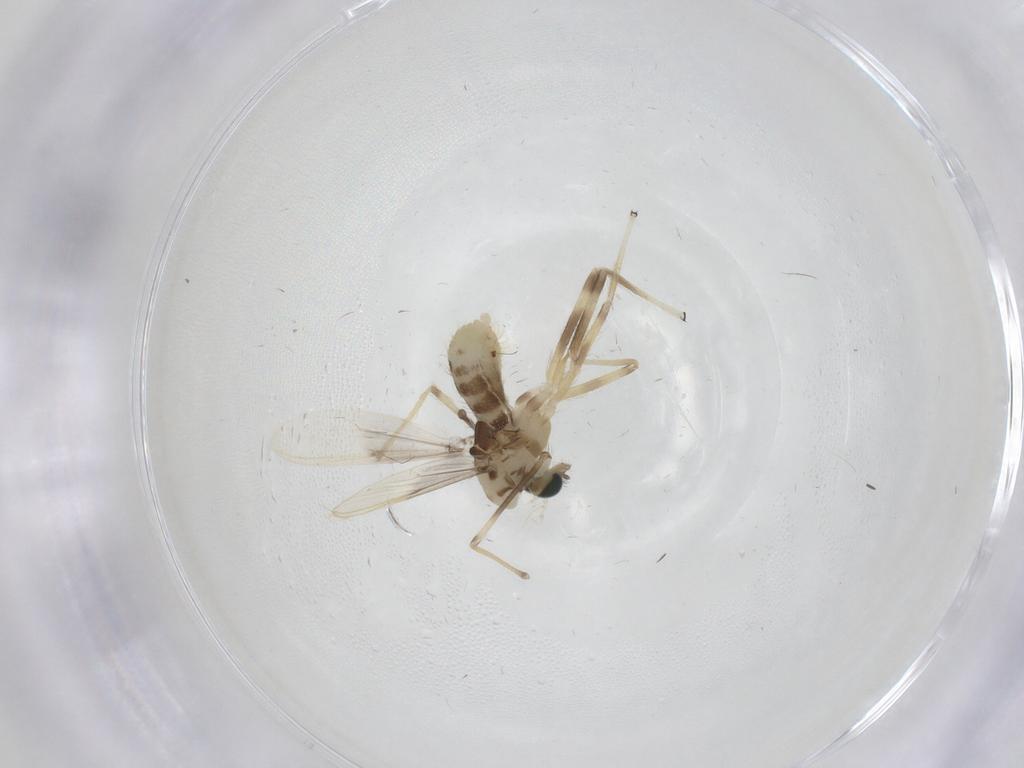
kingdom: Animalia
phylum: Arthropoda
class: Insecta
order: Diptera
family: Chironomidae
